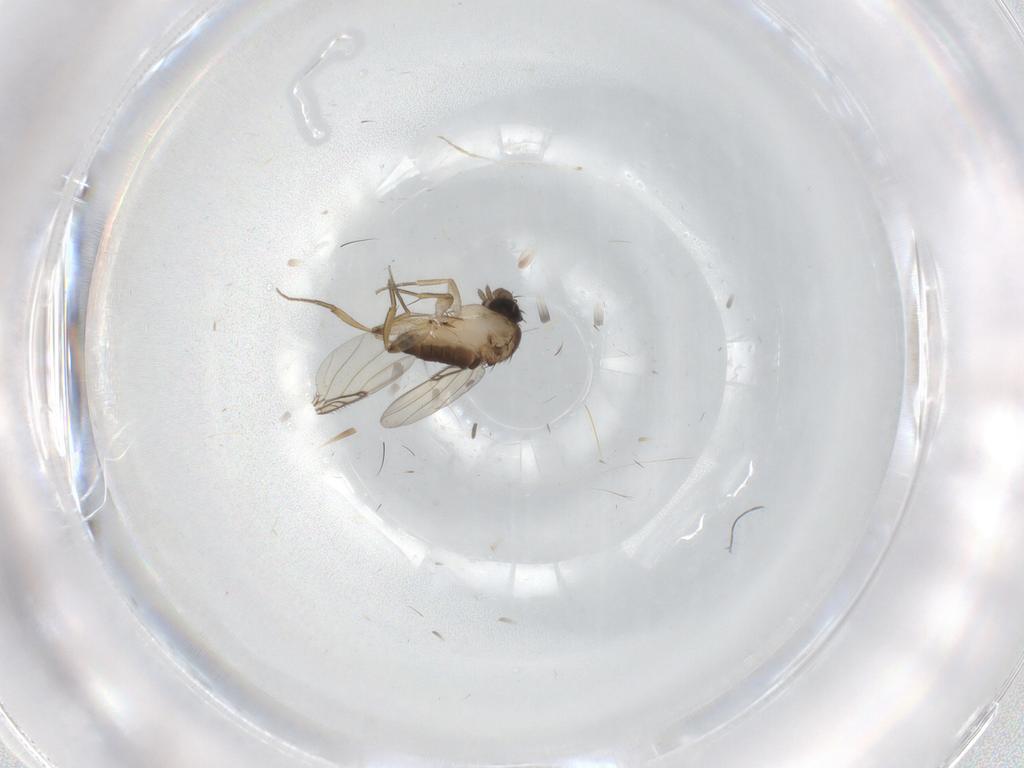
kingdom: Animalia
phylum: Arthropoda
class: Insecta
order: Diptera
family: Phoridae
